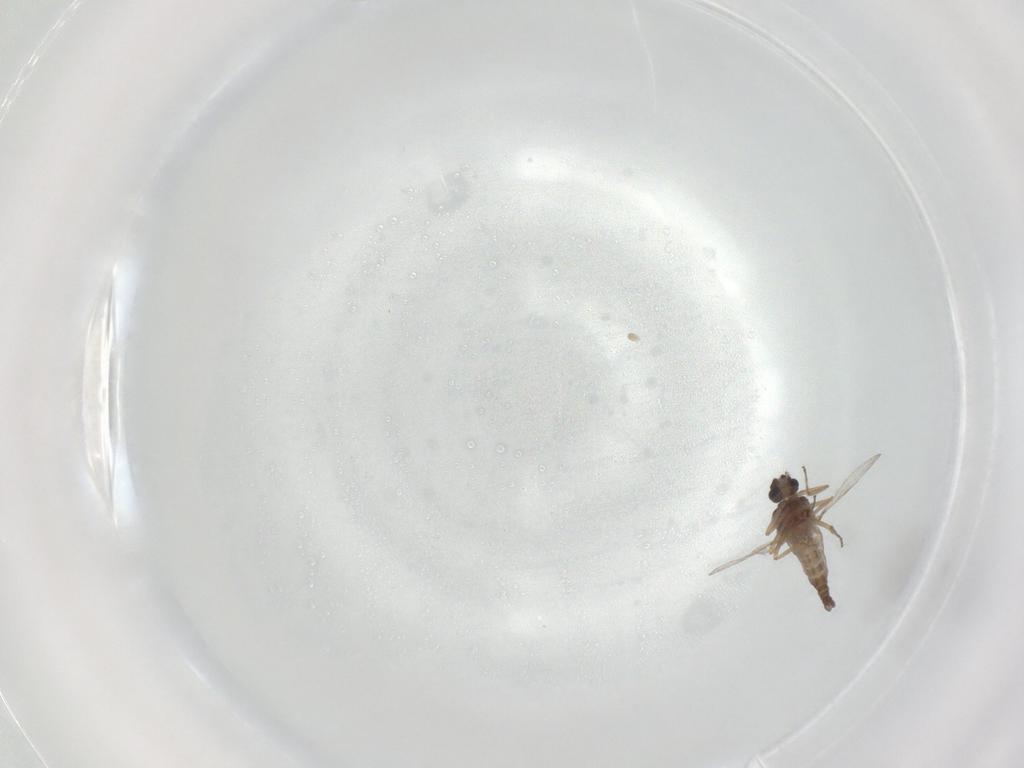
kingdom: Animalia
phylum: Arthropoda
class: Insecta
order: Diptera
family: Ceratopogonidae
